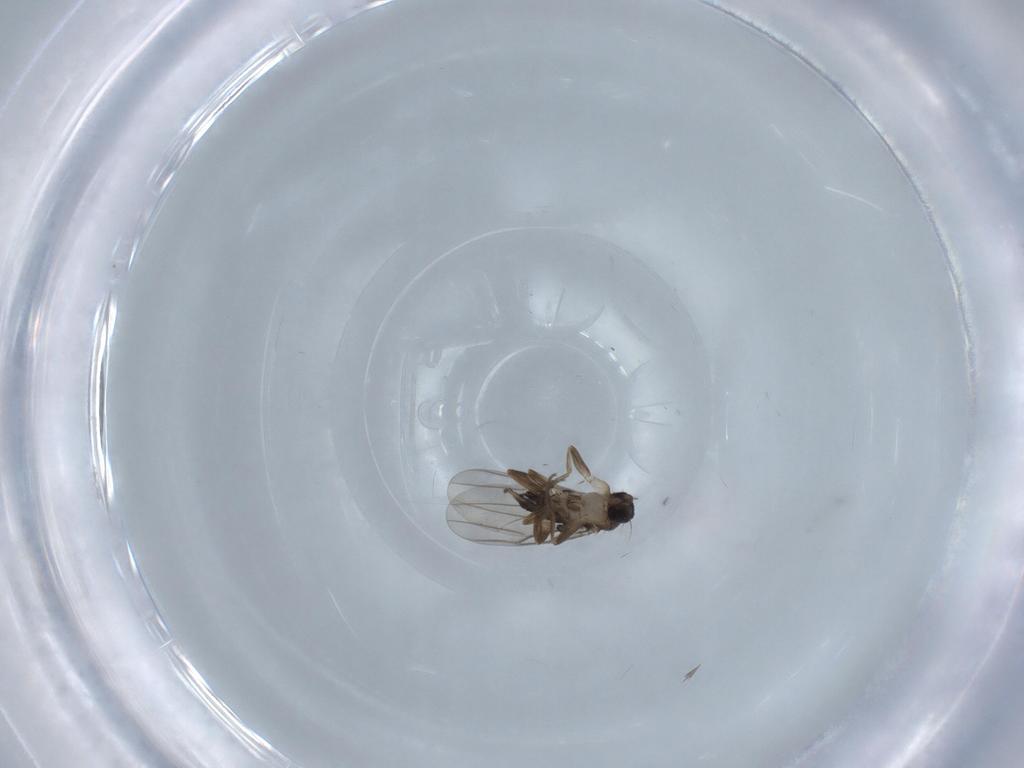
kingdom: Animalia
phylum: Arthropoda
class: Insecta
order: Diptera
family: Phoridae
